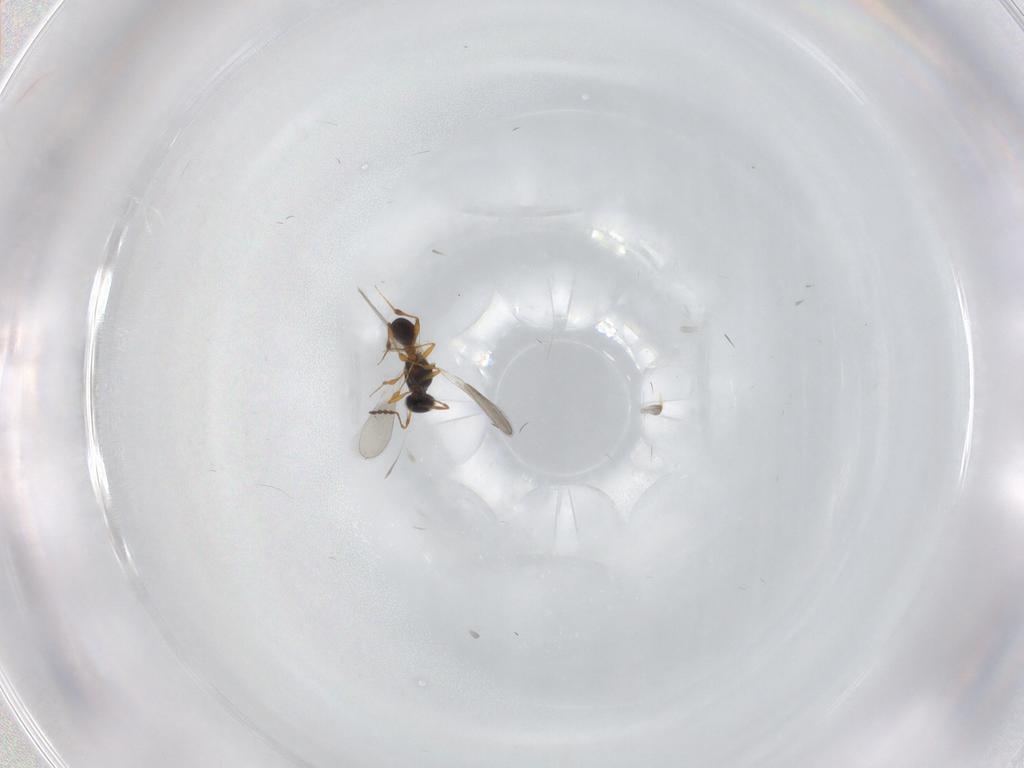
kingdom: Animalia
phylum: Arthropoda
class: Insecta
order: Hymenoptera
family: Platygastridae
